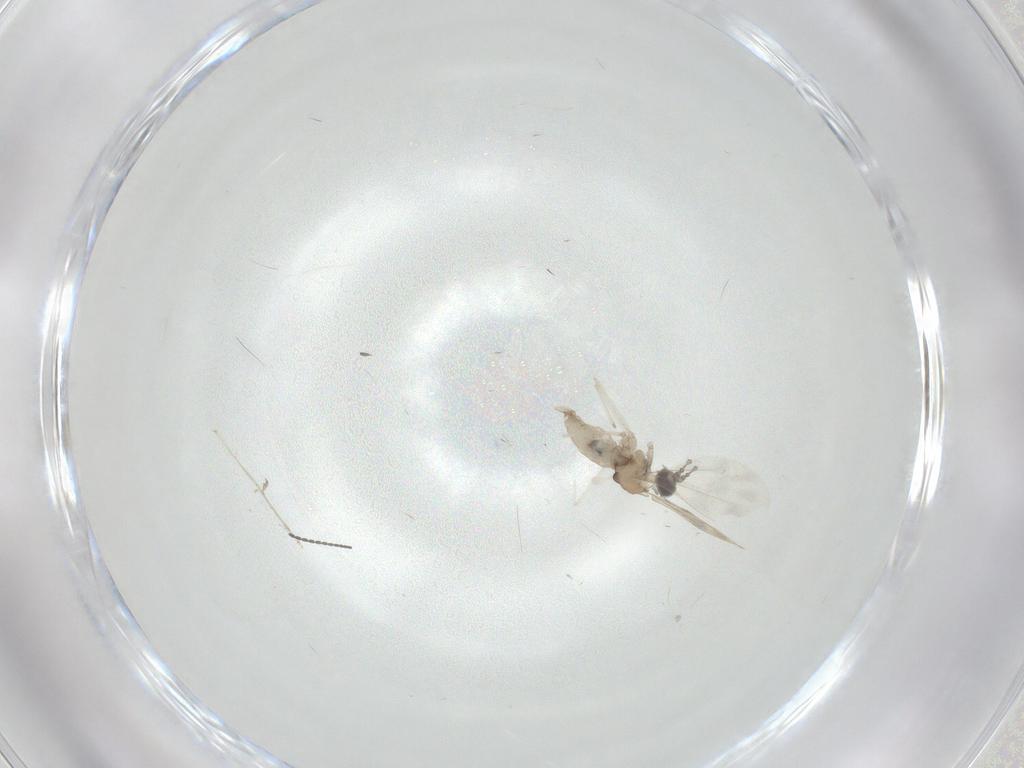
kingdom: Animalia
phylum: Arthropoda
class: Insecta
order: Diptera
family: Cecidomyiidae
